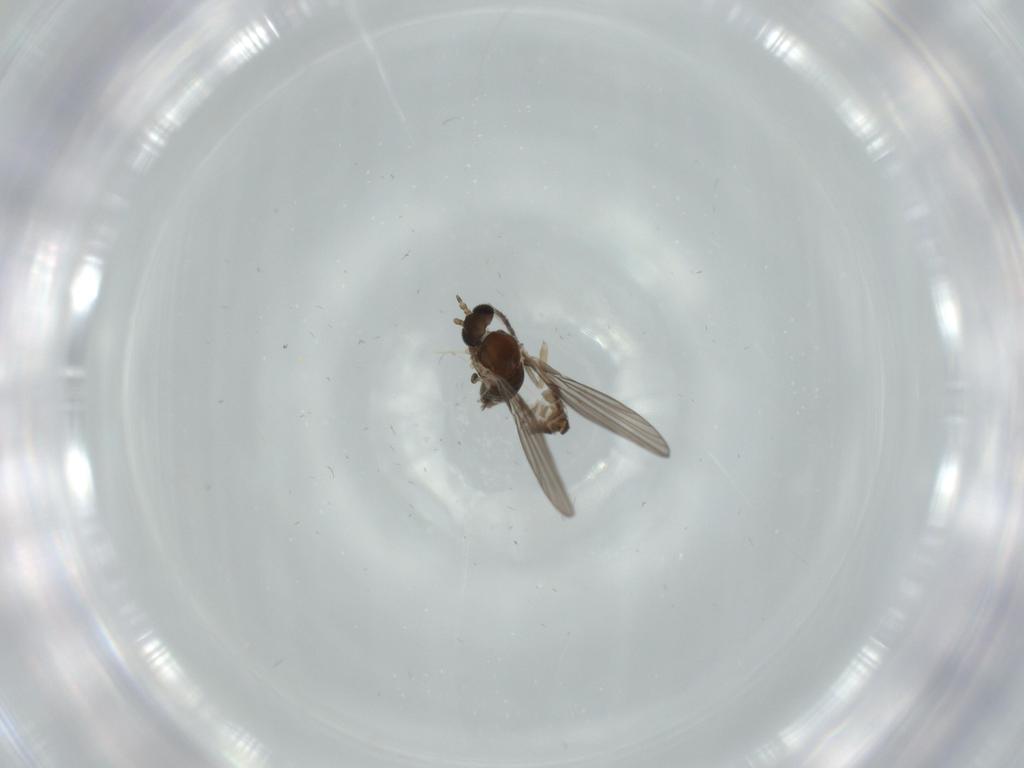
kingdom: Animalia
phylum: Arthropoda
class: Insecta
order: Diptera
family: Psychodidae
